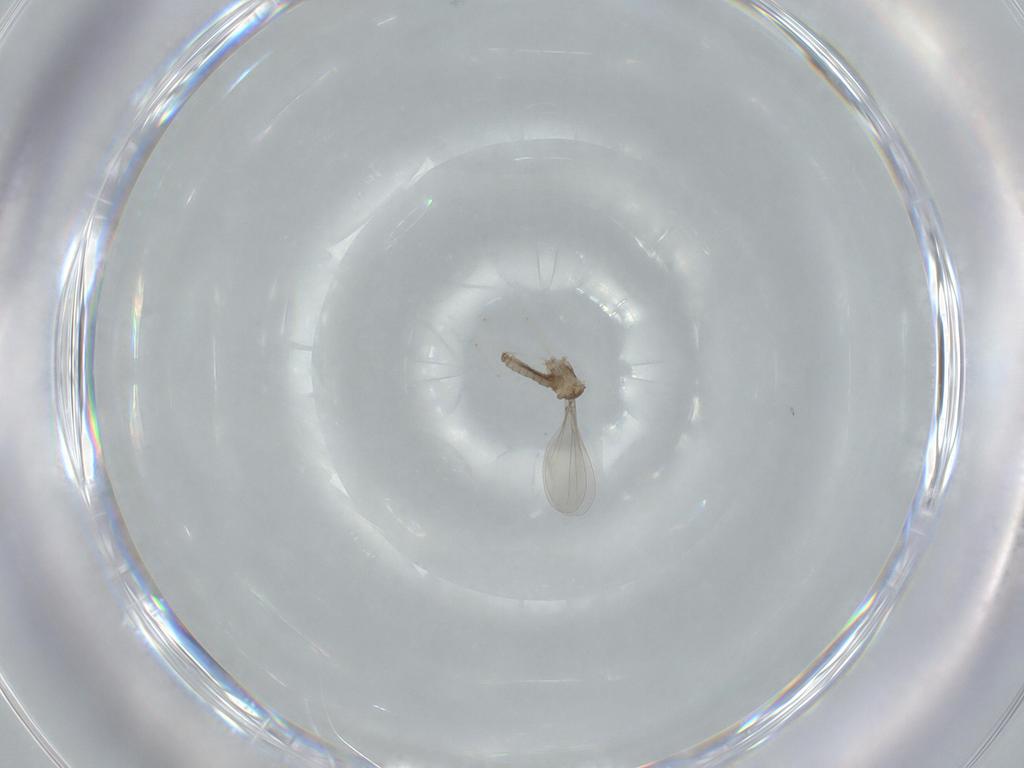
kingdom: Animalia
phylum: Arthropoda
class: Insecta
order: Diptera
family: Cecidomyiidae
